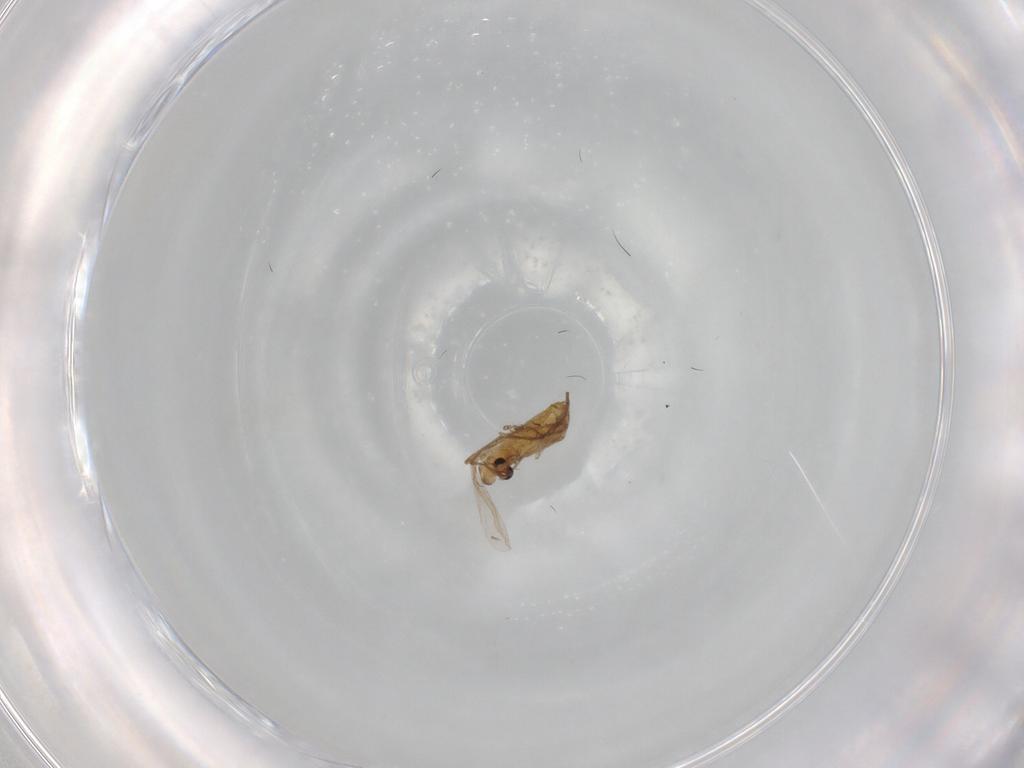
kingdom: Animalia
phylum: Arthropoda
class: Insecta
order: Diptera
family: Chironomidae
